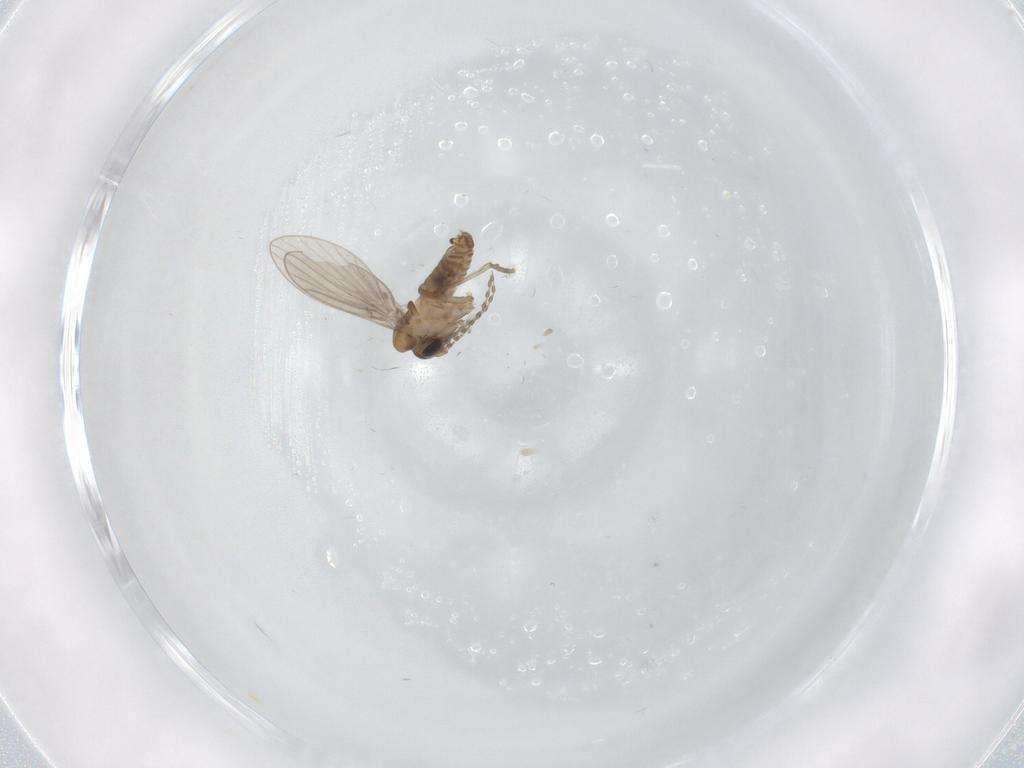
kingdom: Animalia
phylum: Arthropoda
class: Insecta
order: Diptera
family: Psychodidae
